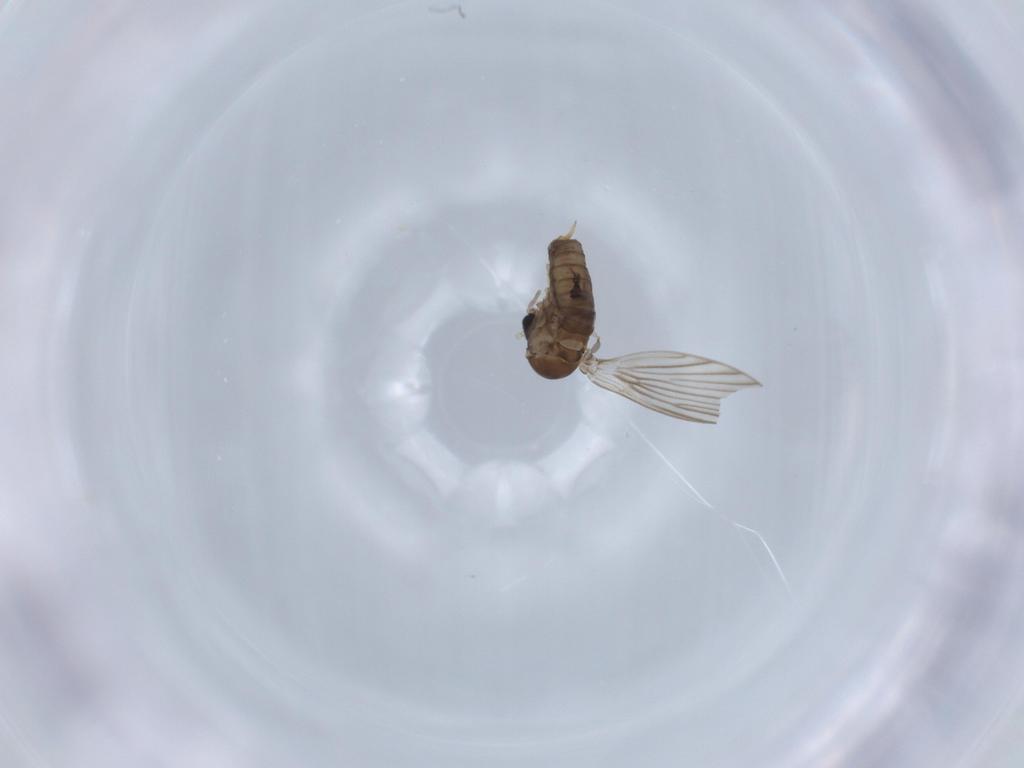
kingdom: Animalia
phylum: Arthropoda
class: Insecta
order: Diptera
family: Psychodidae
